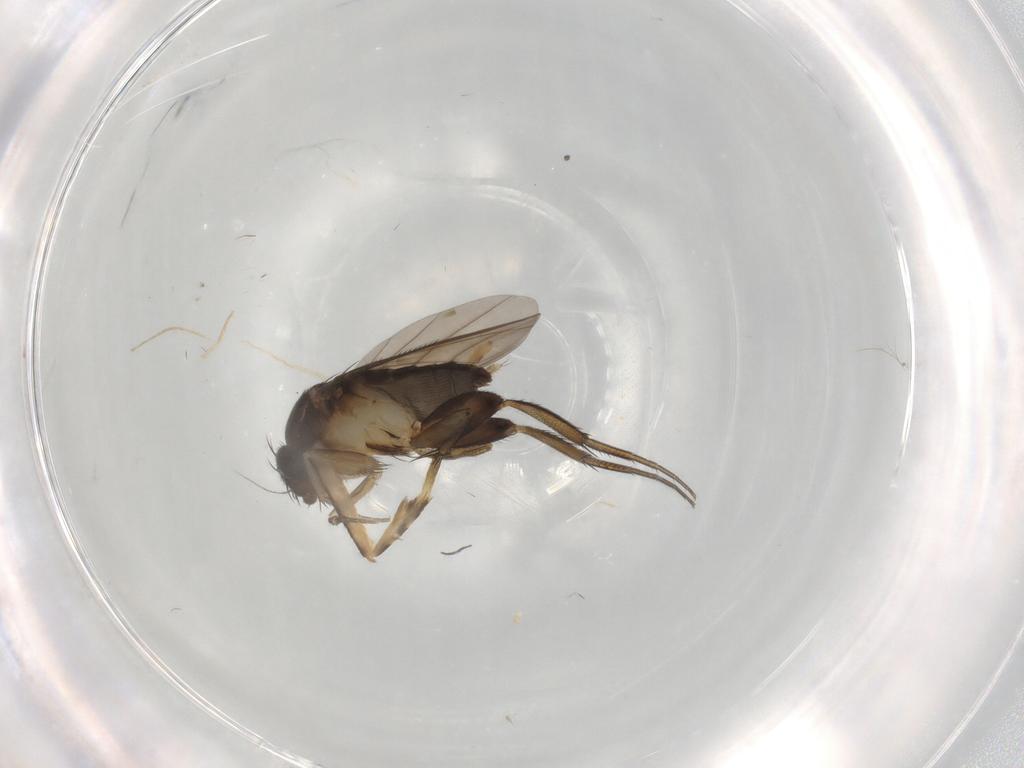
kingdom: Animalia
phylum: Arthropoda
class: Insecta
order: Diptera
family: Phoridae
